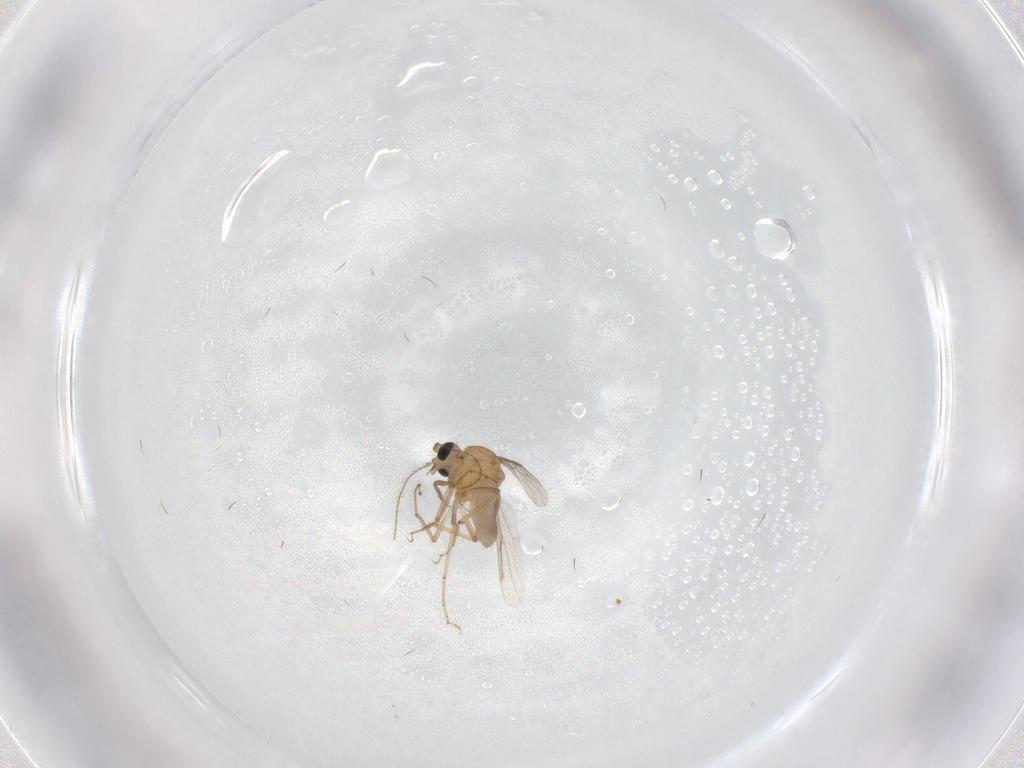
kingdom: Animalia
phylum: Arthropoda
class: Insecta
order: Diptera
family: Ceratopogonidae
